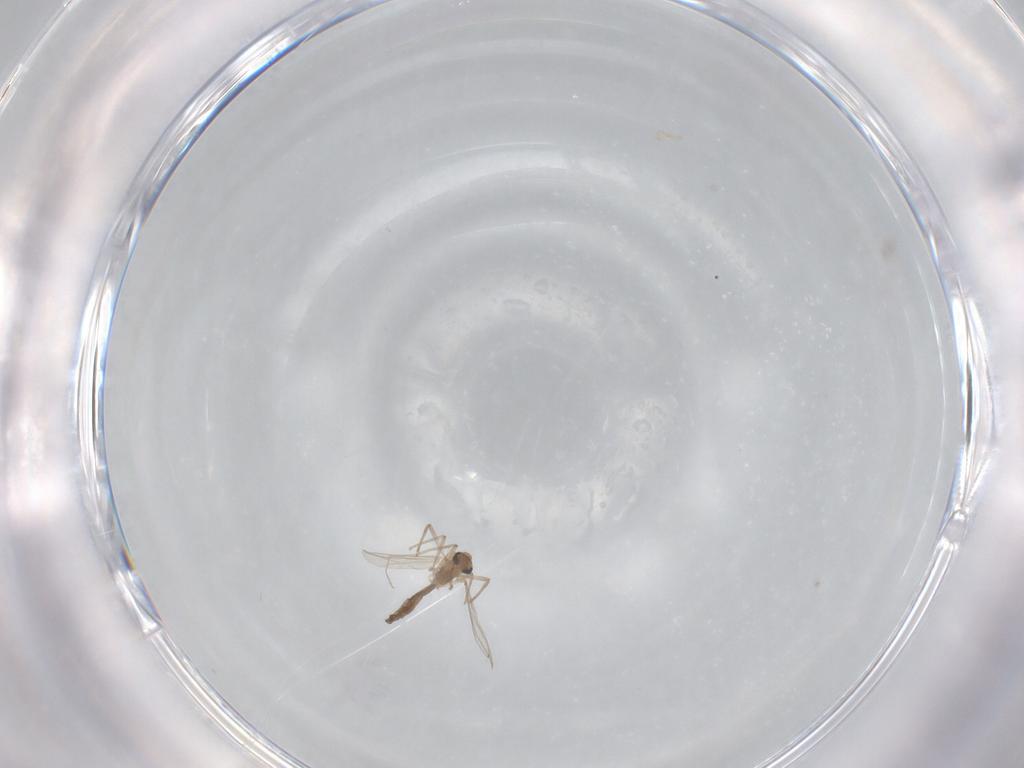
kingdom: Animalia
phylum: Arthropoda
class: Insecta
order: Diptera
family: Chironomidae
